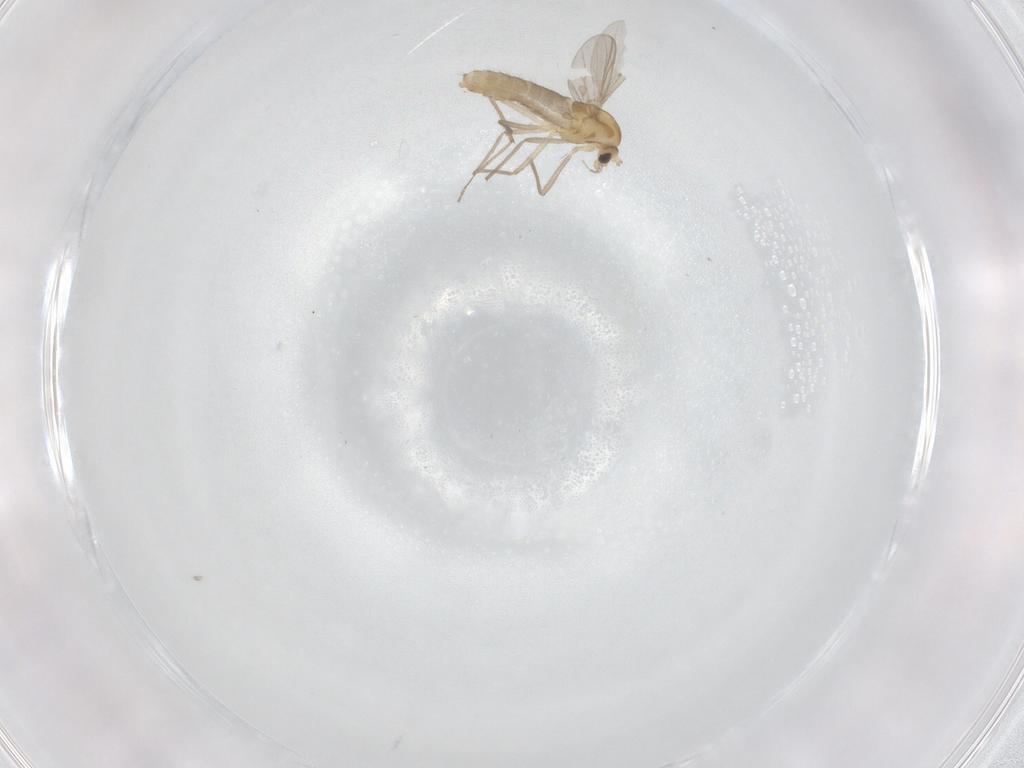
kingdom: Animalia
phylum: Arthropoda
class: Insecta
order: Diptera
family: Chironomidae
